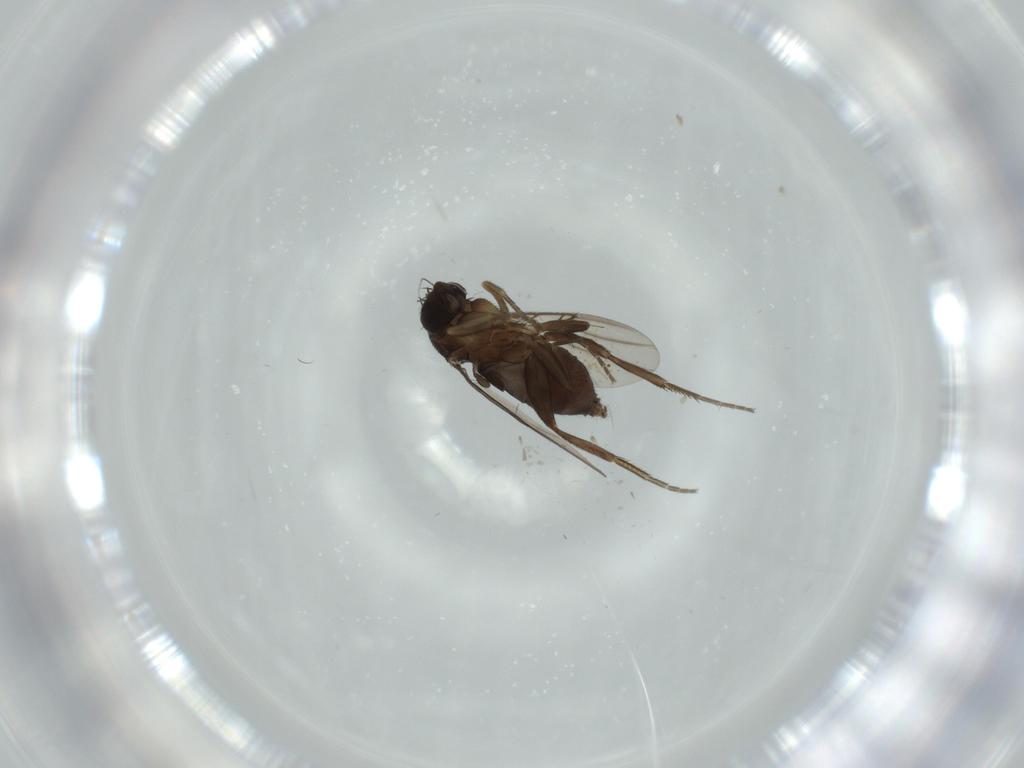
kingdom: Animalia
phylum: Arthropoda
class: Insecta
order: Diptera
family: Phoridae
